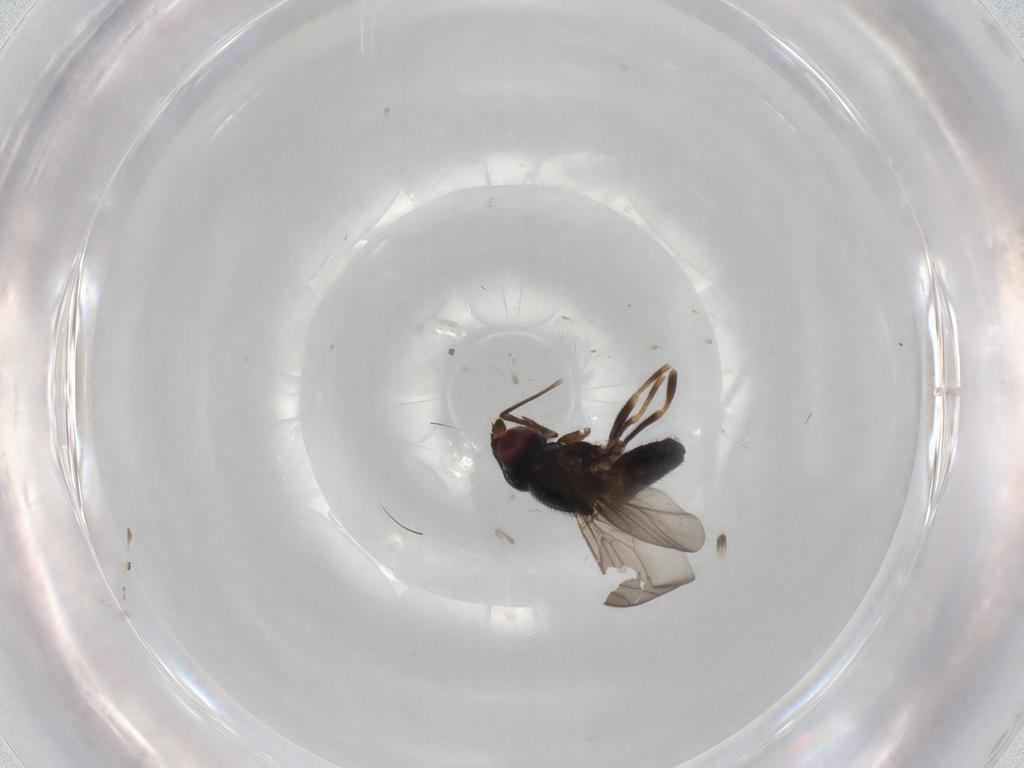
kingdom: Animalia
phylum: Arthropoda
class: Insecta
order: Diptera
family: Chloropidae
